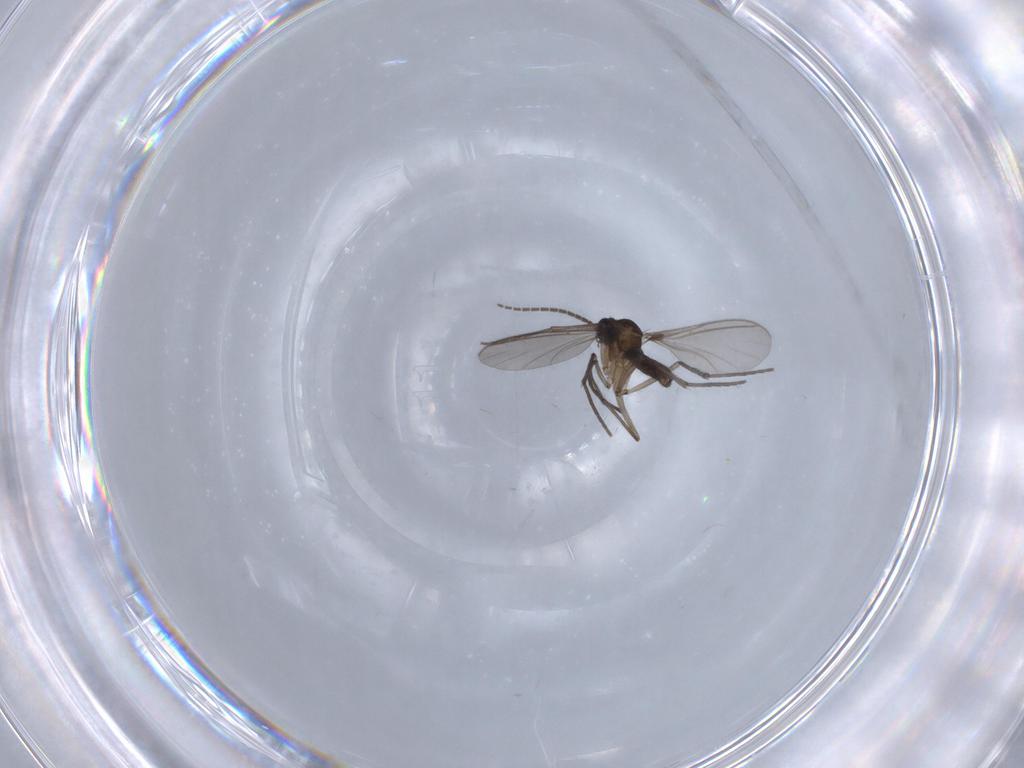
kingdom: Animalia
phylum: Arthropoda
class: Insecta
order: Diptera
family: Sciaridae
